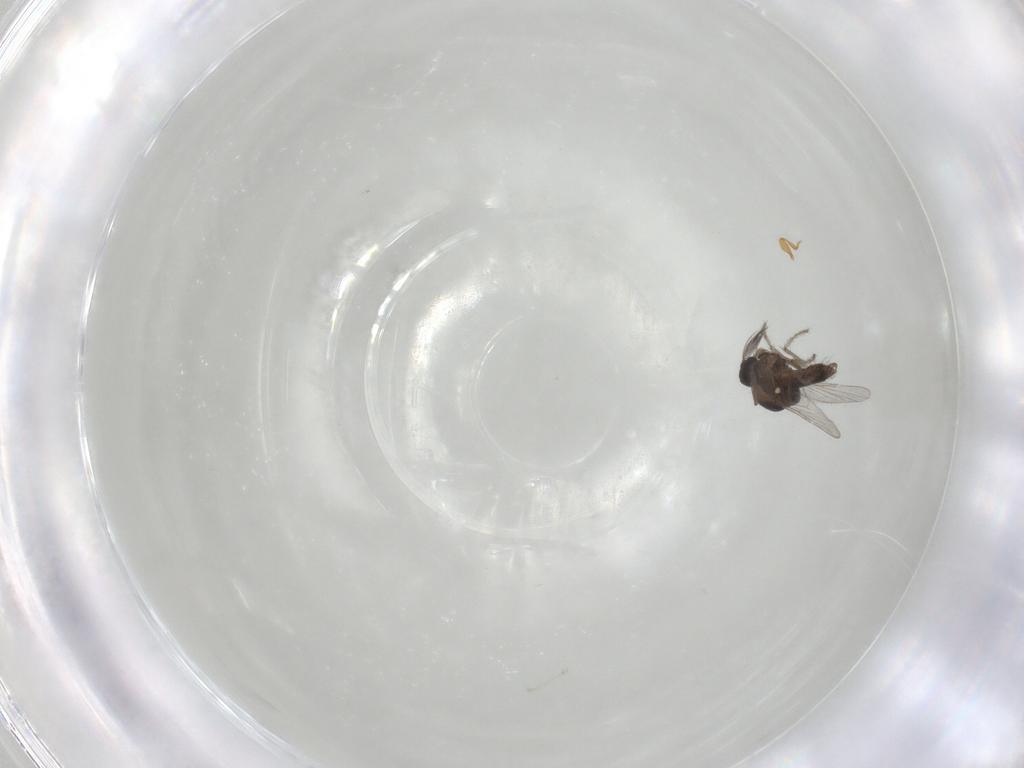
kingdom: Animalia
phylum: Arthropoda
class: Insecta
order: Diptera
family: Ceratopogonidae
